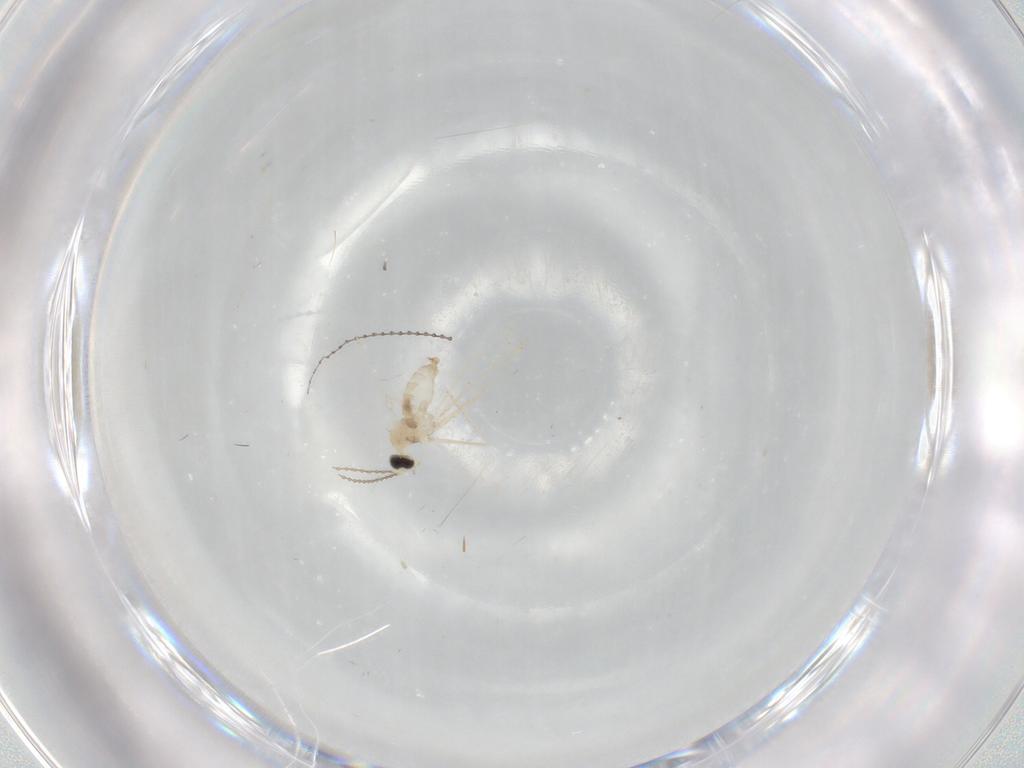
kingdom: Animalia
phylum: Arthropoda
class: Insecta
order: Diptera
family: Cecidomyiidae
